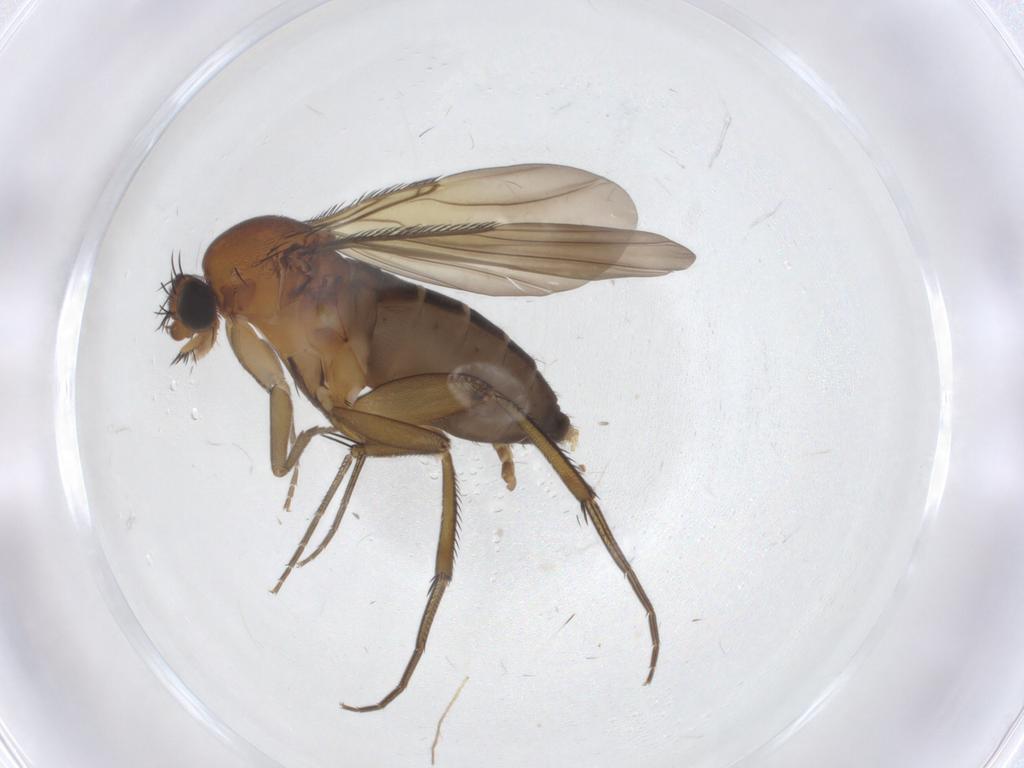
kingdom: Animalia
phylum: Arthropoda
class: Insecta
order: Diptera
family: Phoridae
